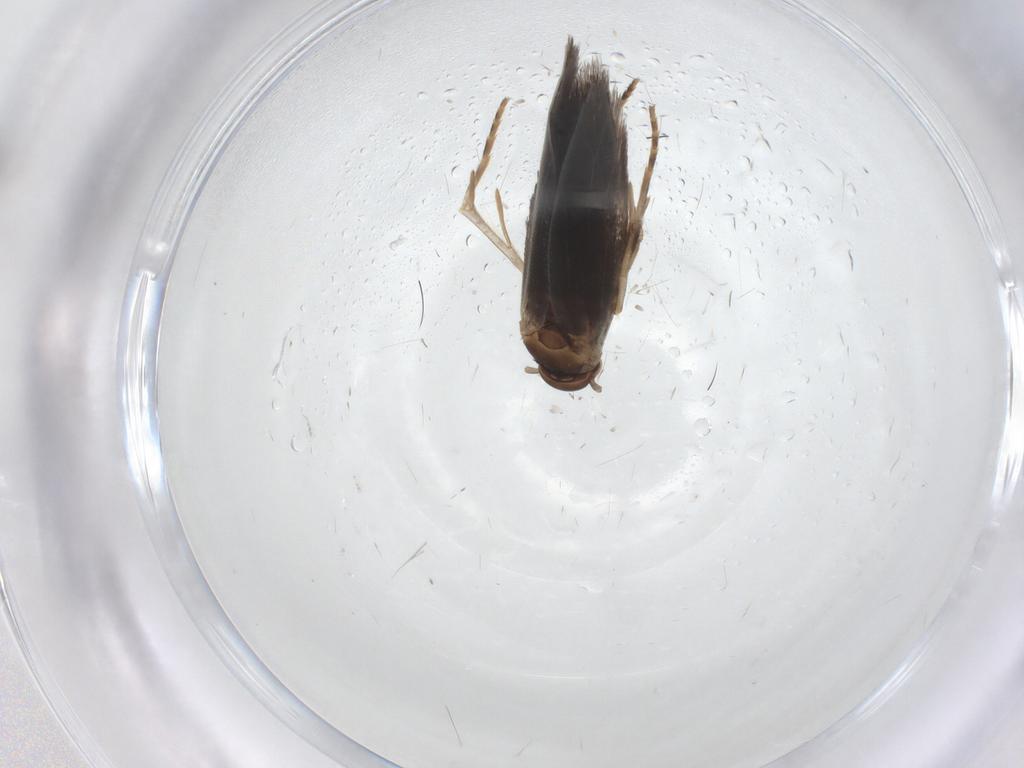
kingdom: Animalia
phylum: Arthropoda
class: Insecta
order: Lepidoptera
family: Elachistidae
